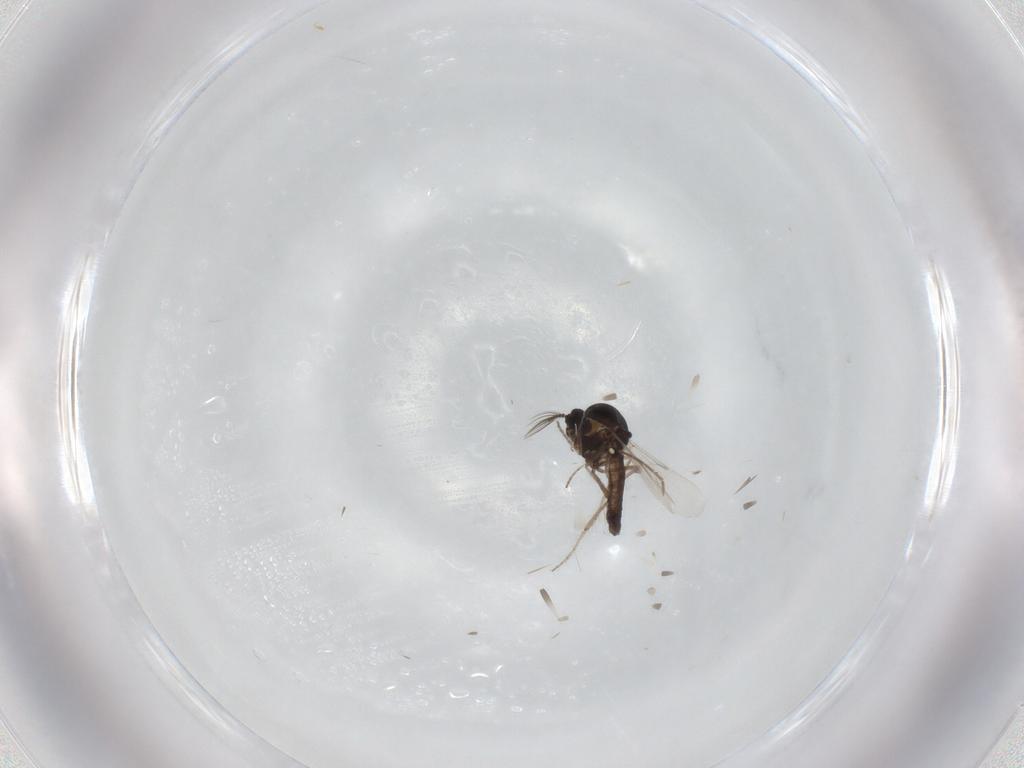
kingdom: Animalia
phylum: Arthropoda
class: Insecta
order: Diptera
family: Ceratopogonidae
